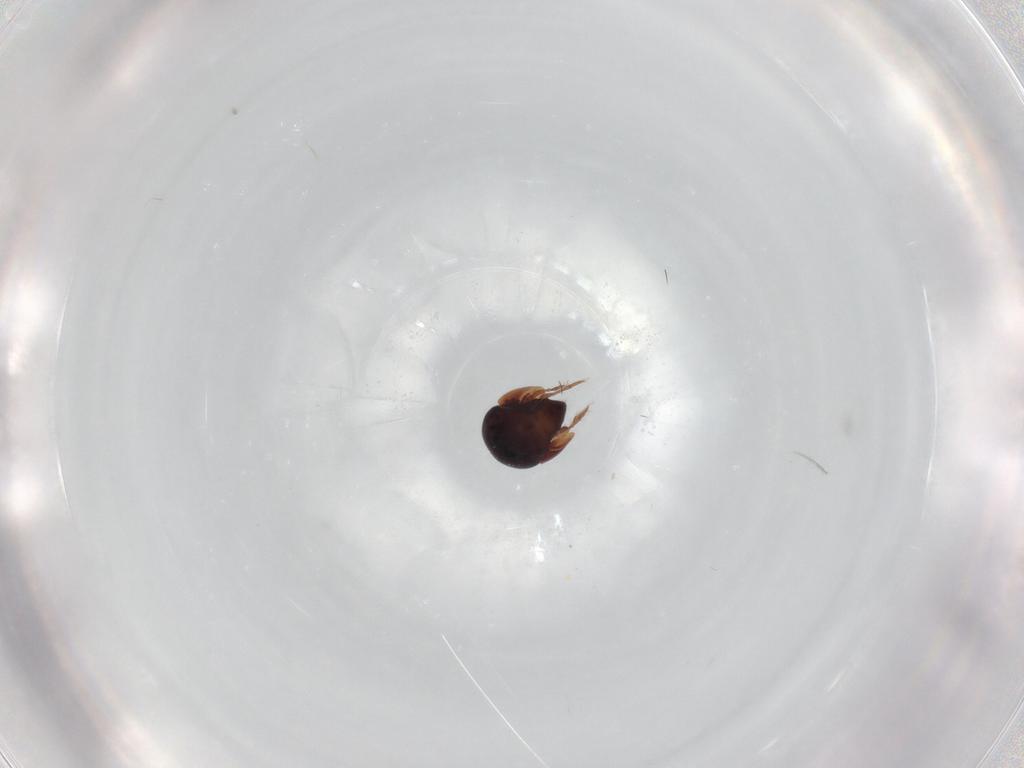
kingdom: Animalia
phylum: Arthropoda
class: Arachnida
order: Sarcoptiformes
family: Galumnidae
